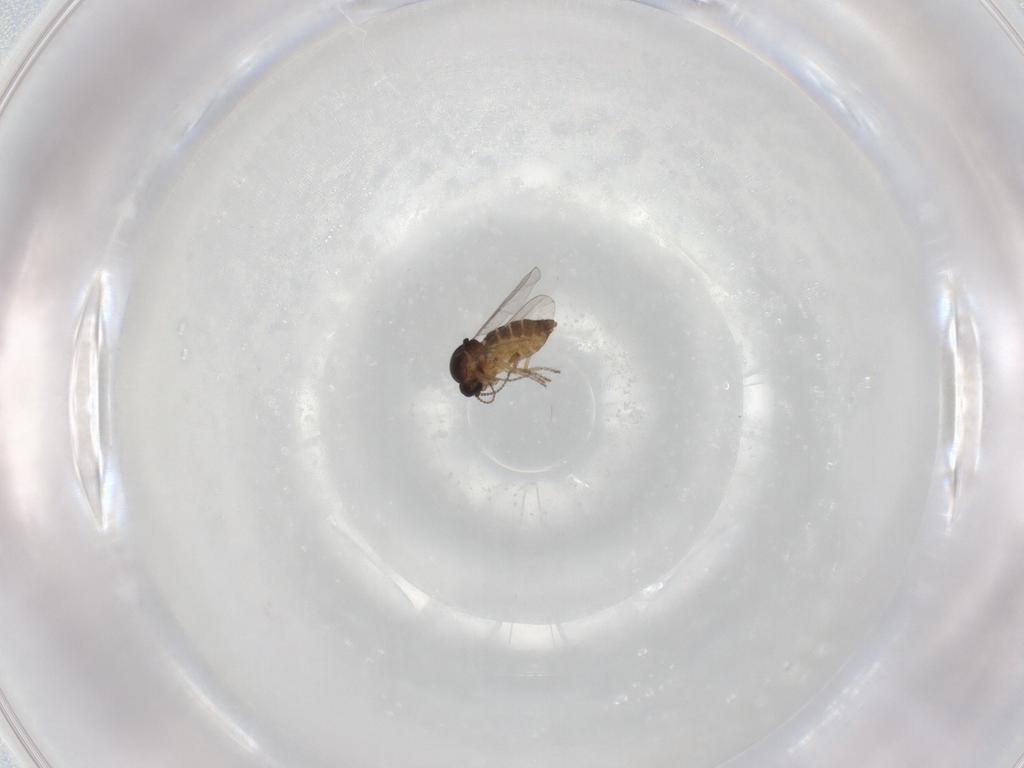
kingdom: Animalia
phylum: Arthropoda
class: Insecta
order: Diptera
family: Ceratopogonidae
